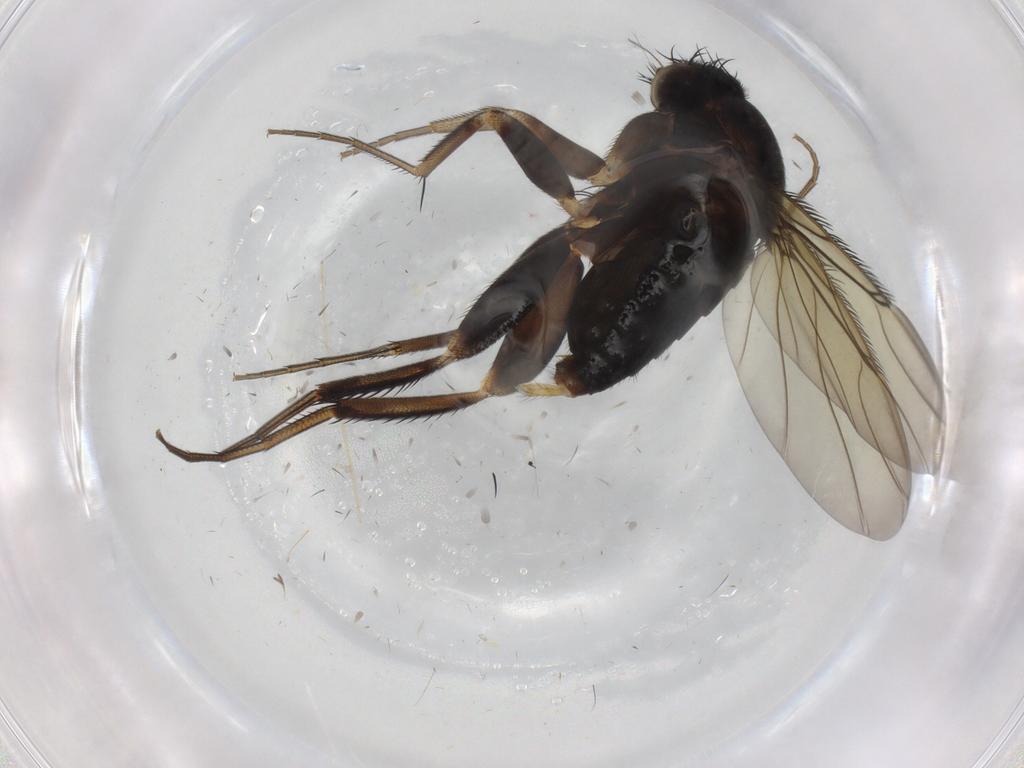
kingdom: Animalia
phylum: Arthropoda
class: Insecta
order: Diptera
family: Phoridae
